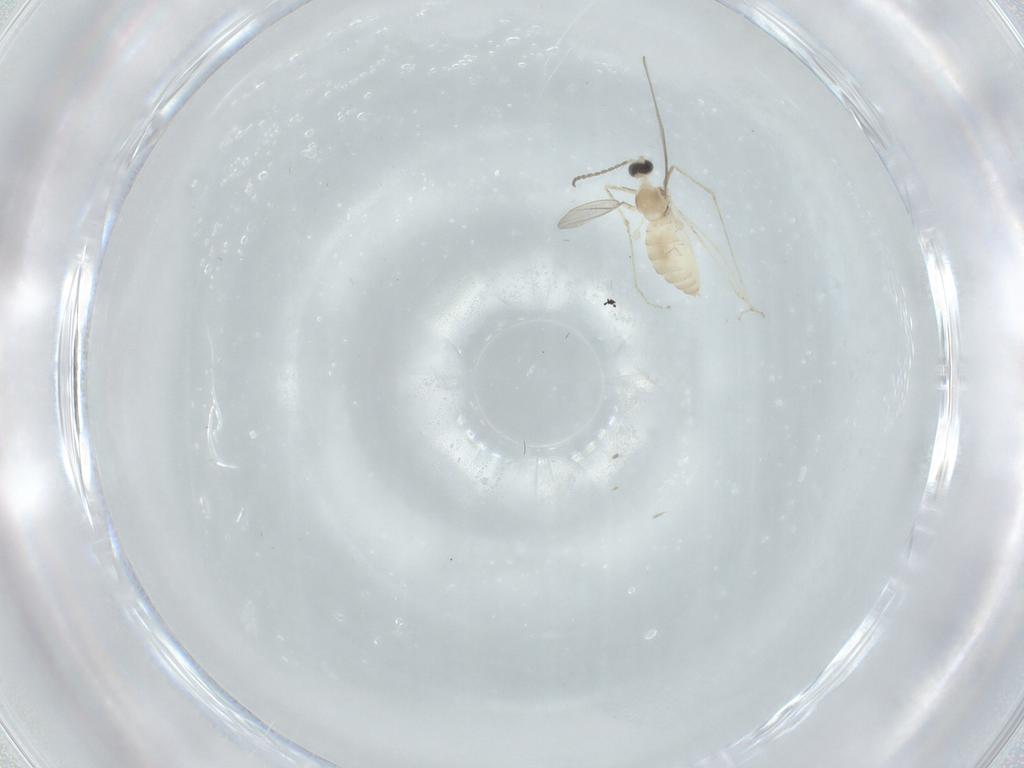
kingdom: Animalia
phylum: Arthropoda
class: Insecta
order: Diptera
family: Cecidomyiidae
